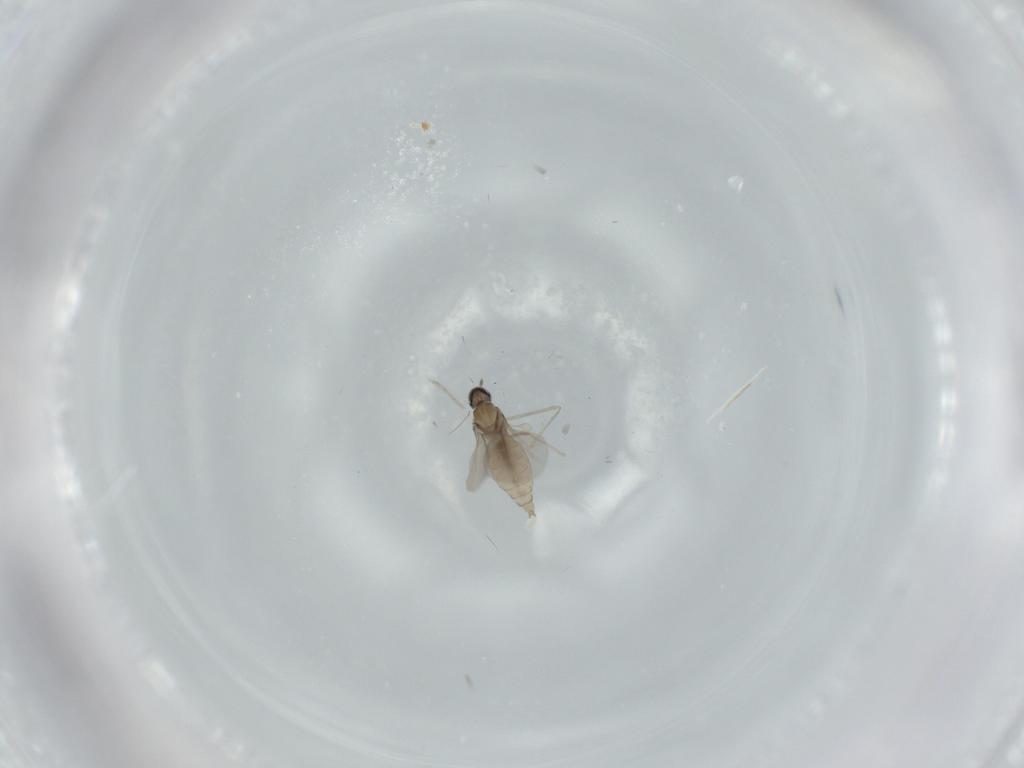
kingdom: Animalia
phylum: Arthropoda
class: Insecta
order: Diptera
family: Cecidomyiidae
